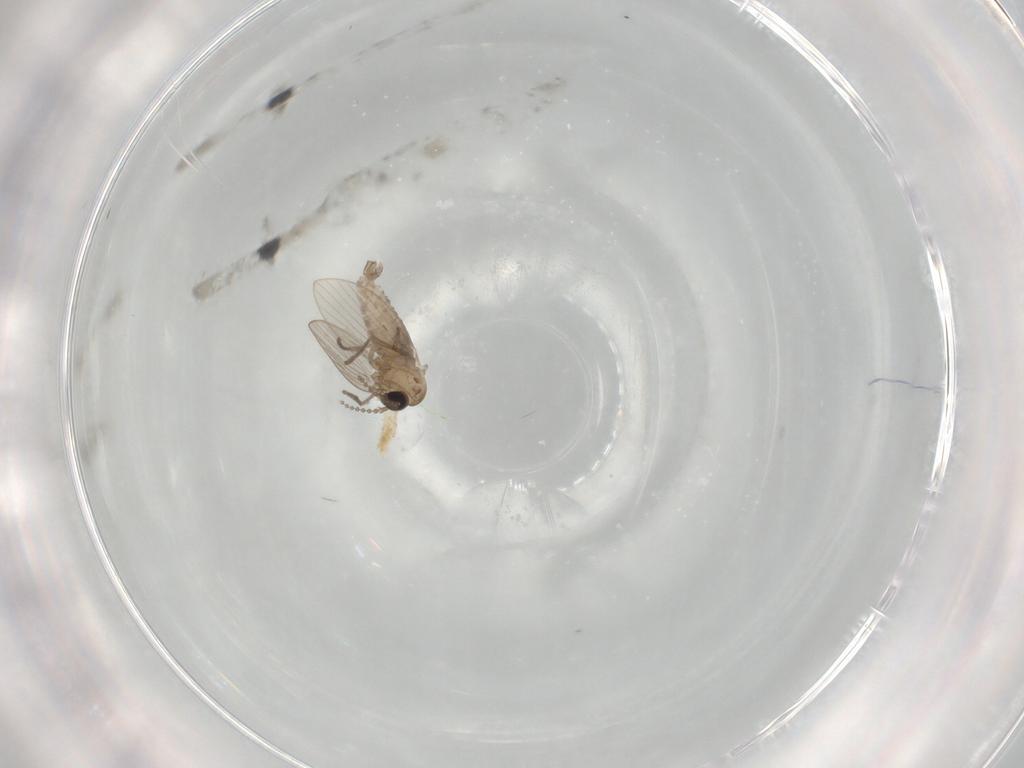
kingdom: Animalia
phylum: Arthropoda
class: Insecta
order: Diptera
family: Psychodidae
